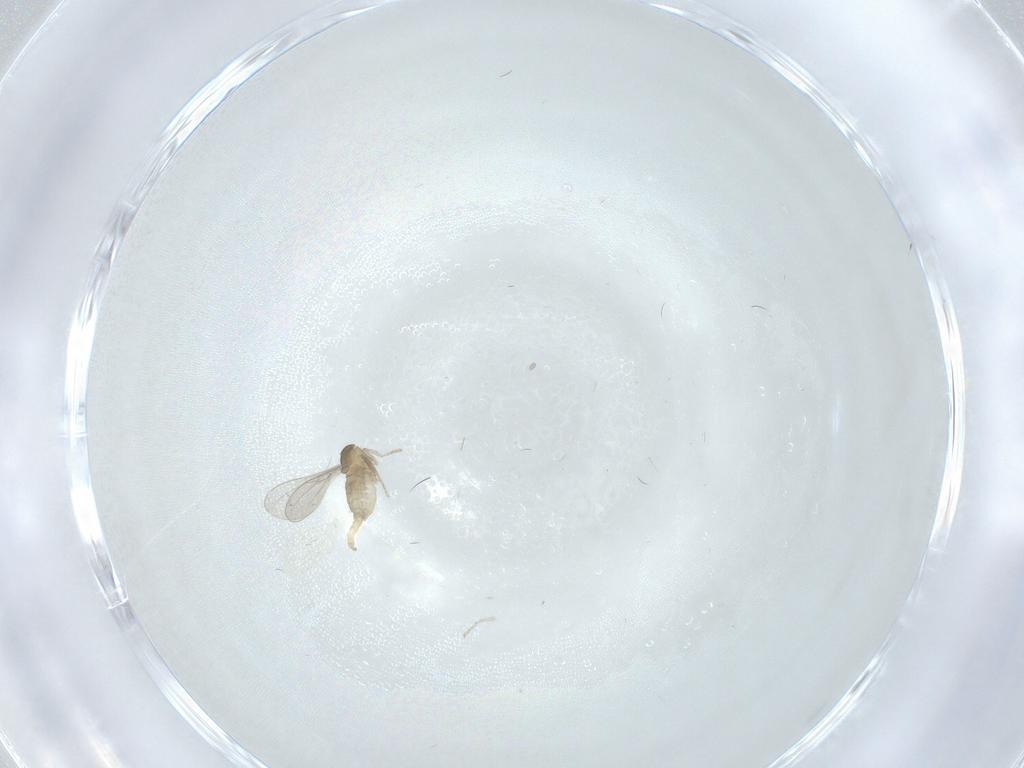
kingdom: Animalia
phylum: Arthropoda
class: Insecta
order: Diptera
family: Cecidomyiidae
